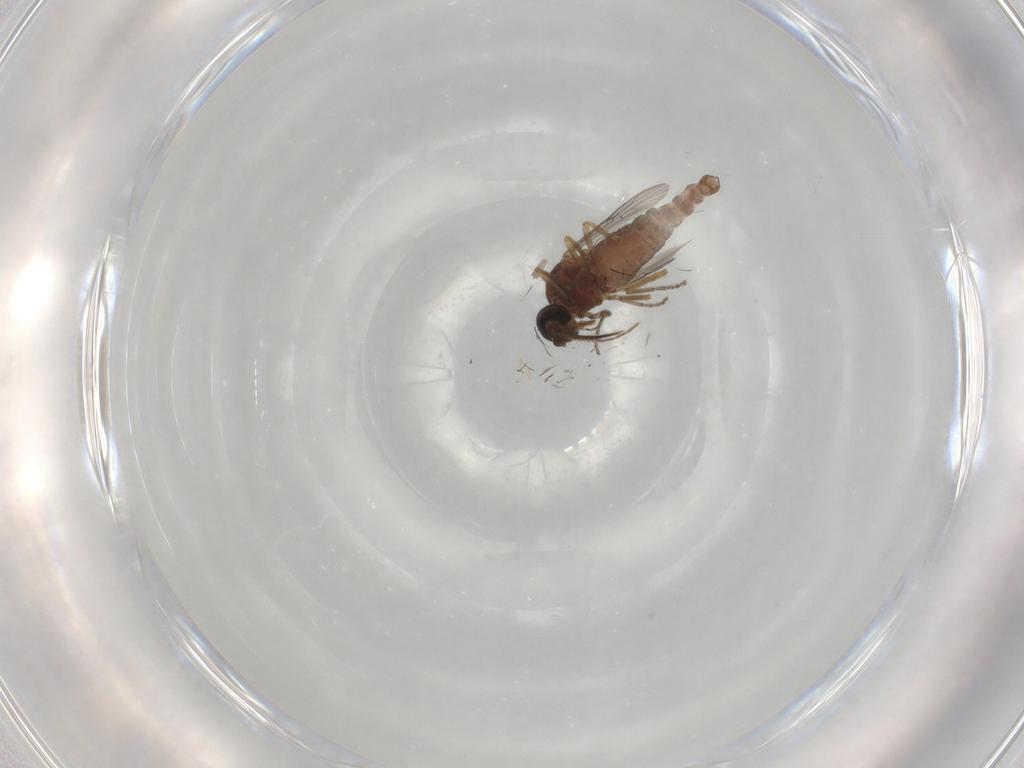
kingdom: Animalia
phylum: Arthropoda
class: Insecta
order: Diptera
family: Ceratopogonidae
